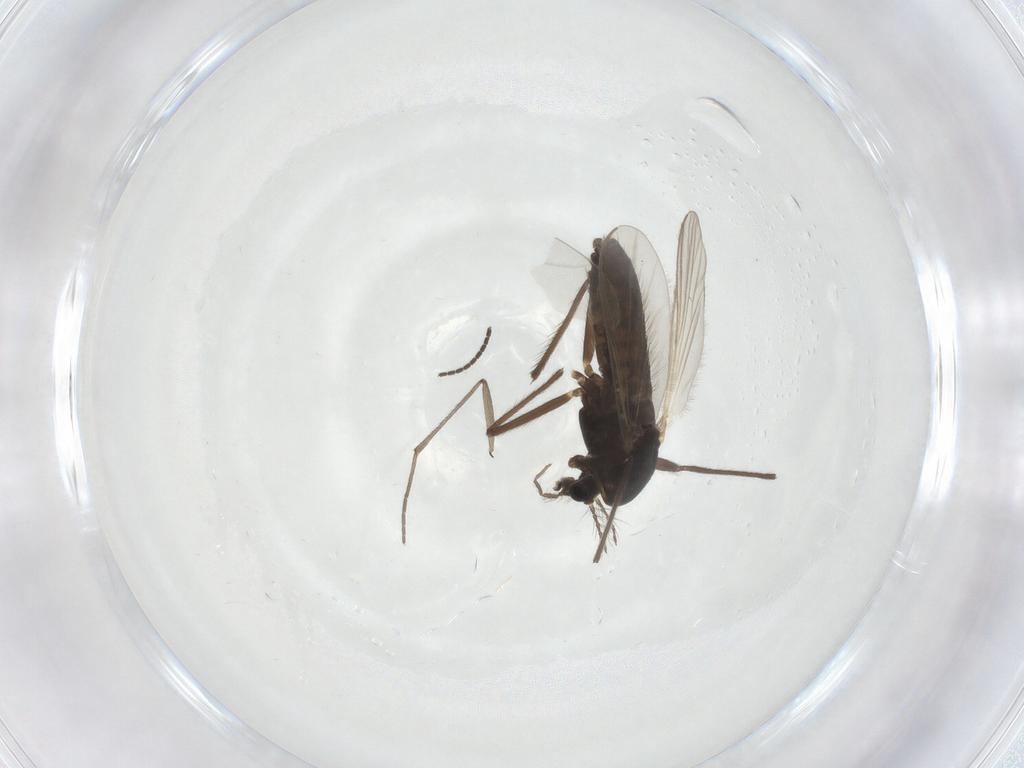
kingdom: Animalia
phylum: Arthropoda
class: Insecta
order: Diptera
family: Chironomidae
